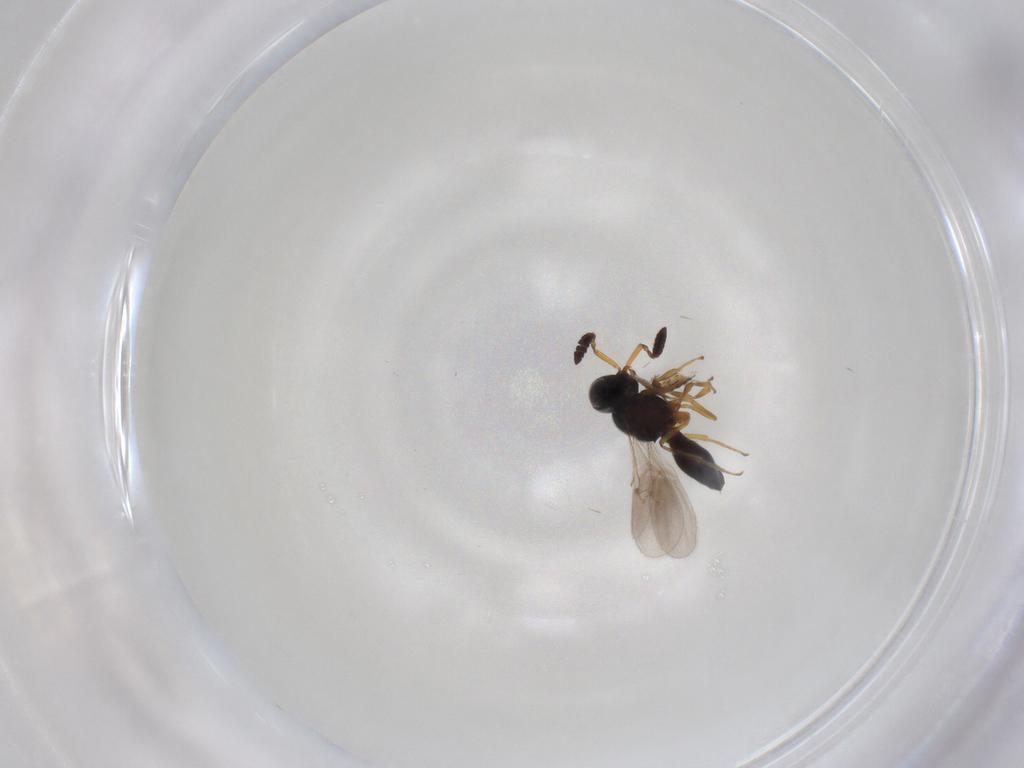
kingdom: Animalia
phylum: Arthropoda
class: Insecta
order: Hymenoptera
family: Scelionidae
